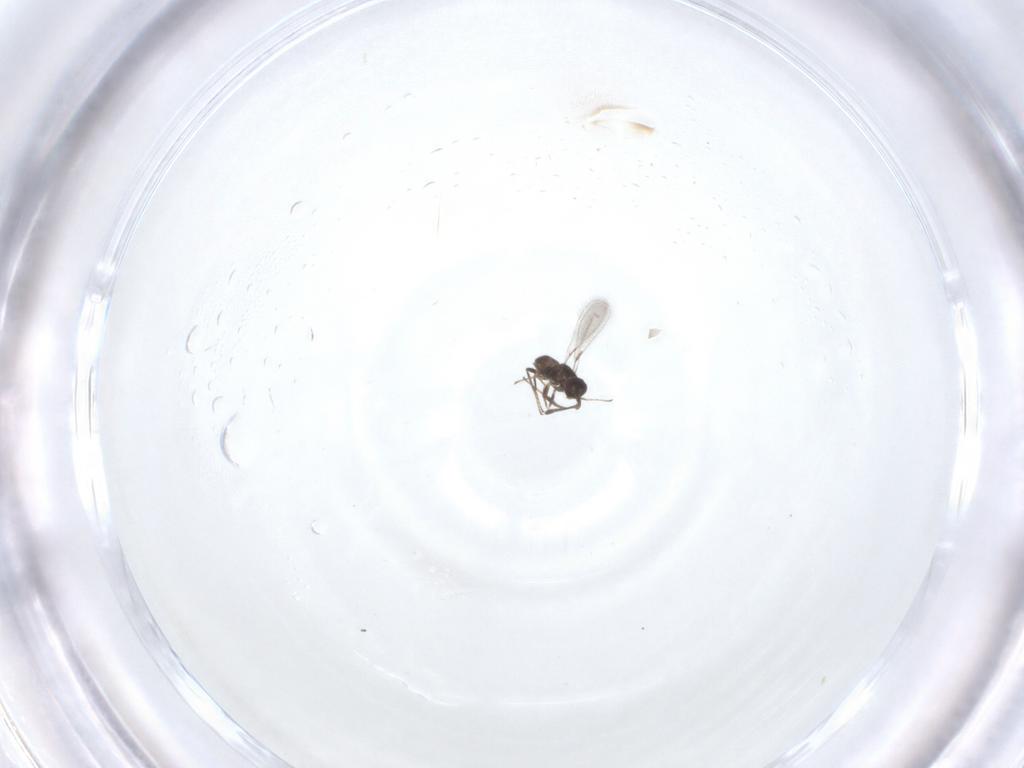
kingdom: Animalia
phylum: Arthropoda
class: Insecta
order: Hymenoptera
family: Mymaridae
